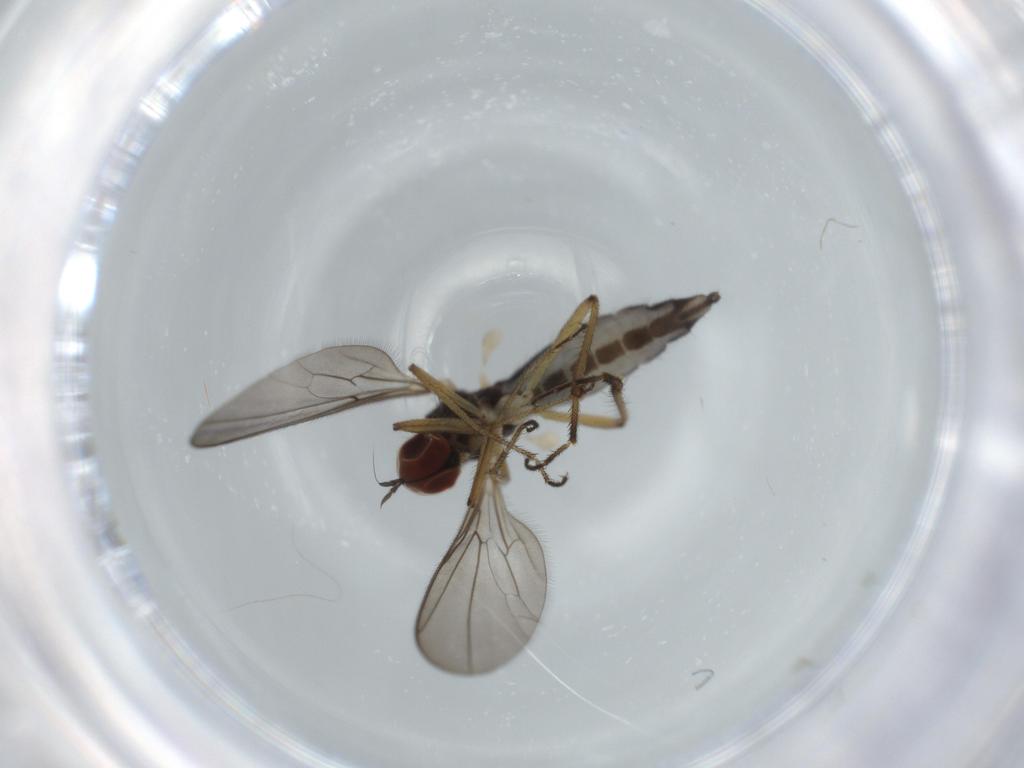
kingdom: Animalia
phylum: Arthropoda
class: Insecta
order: Diptera
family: Hybotidae
